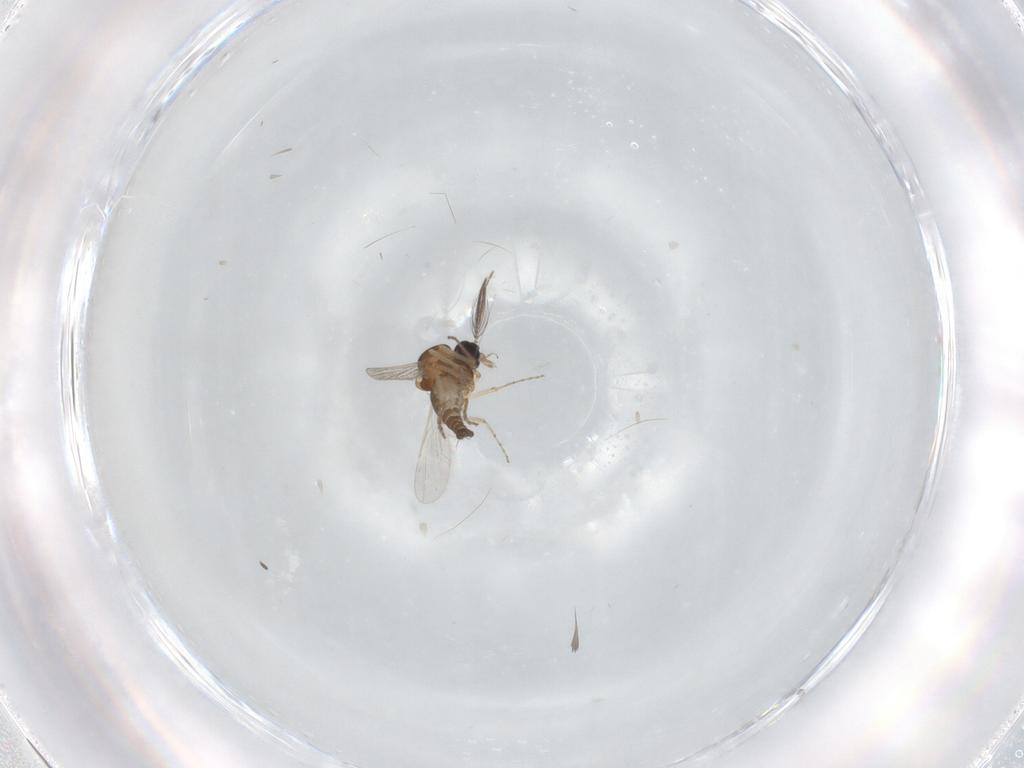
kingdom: Animalia
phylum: Arthropoda
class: Insecta
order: Diptera
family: Ceratopogonidae
